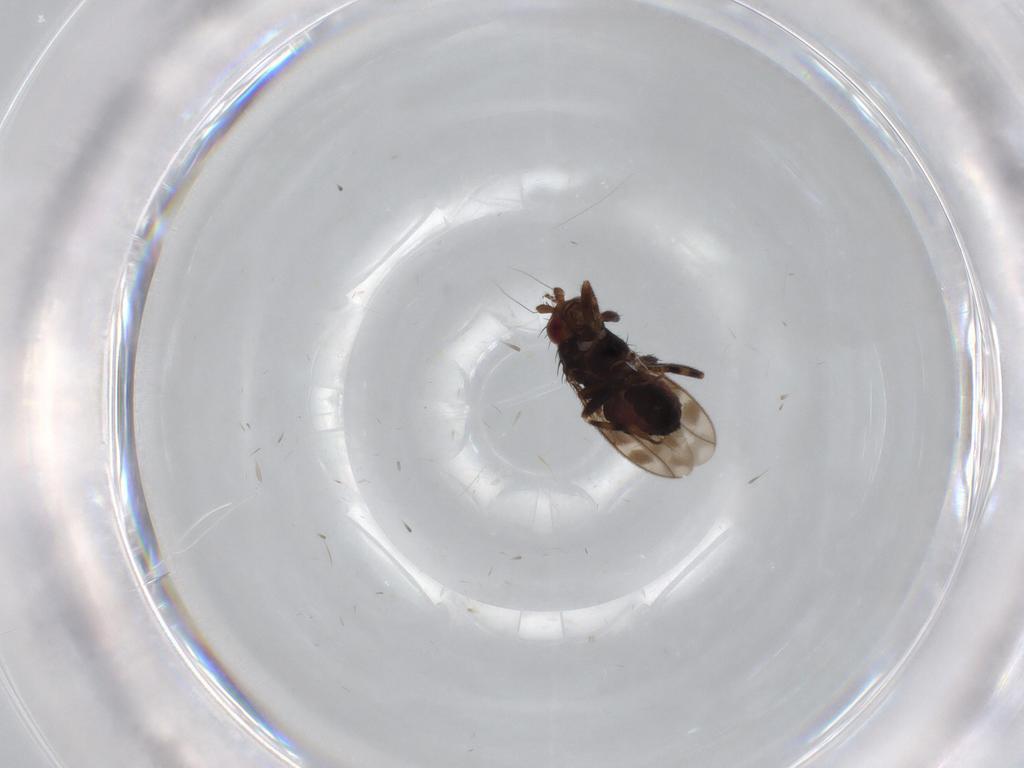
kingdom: Animalia
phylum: Arthropoda
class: Insecta
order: Diptera
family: Sphaeroceridae
